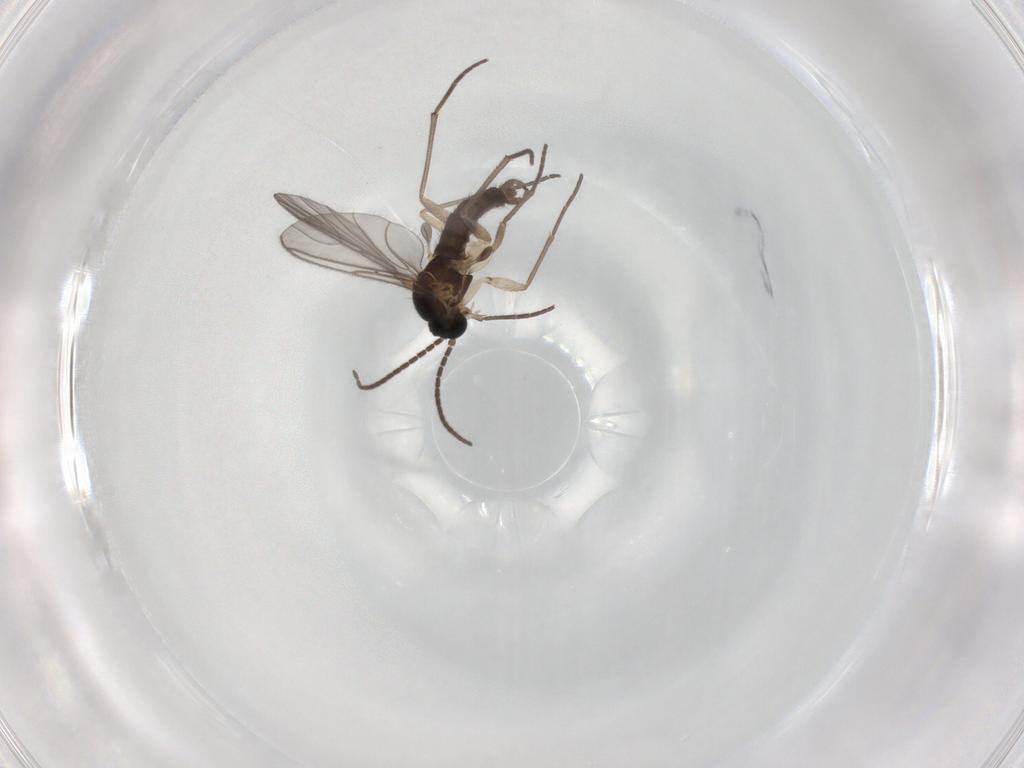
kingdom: Animalia
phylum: Arthropoda
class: Insecta
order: Diptera
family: Sciaridae
